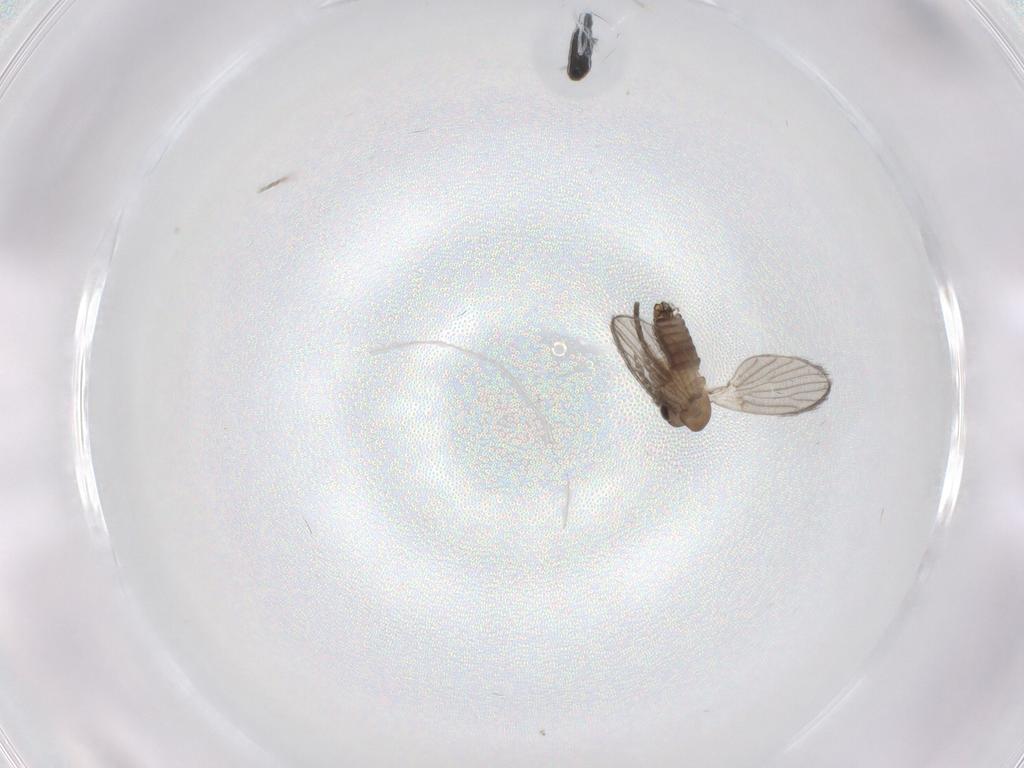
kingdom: Animalia
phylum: Arthropoda
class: Insecta
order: Diptera
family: Psychodidae
